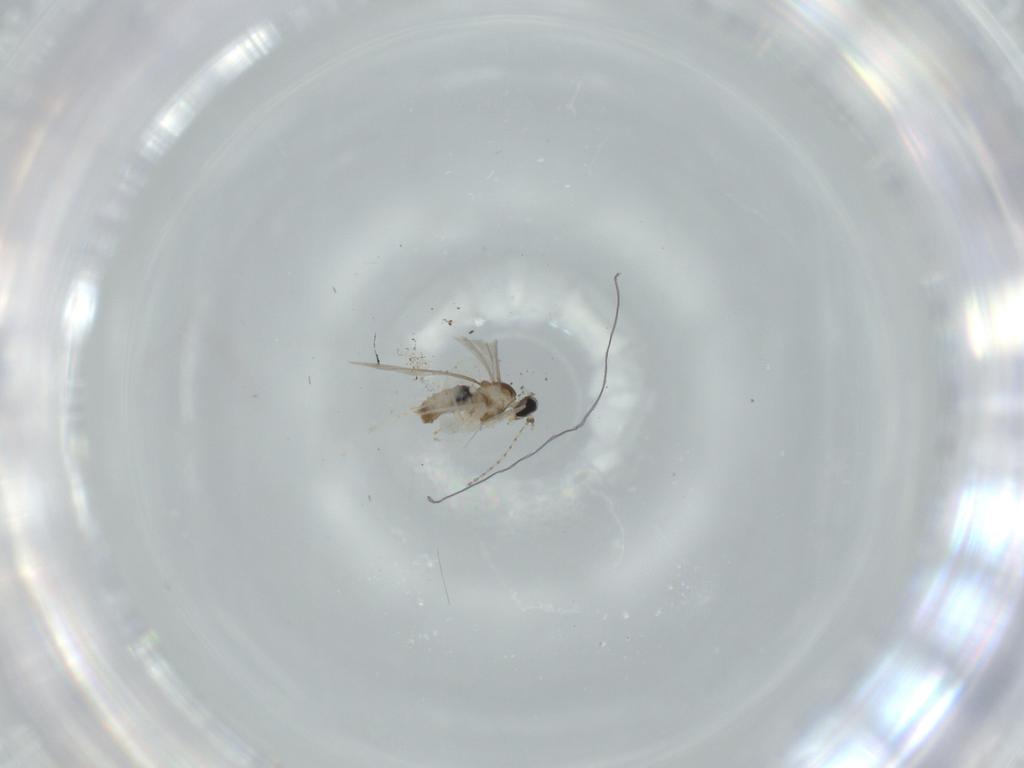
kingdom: Animalia
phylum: Arthropoda
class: Insecta
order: Diptera
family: Cecidomyiidae
